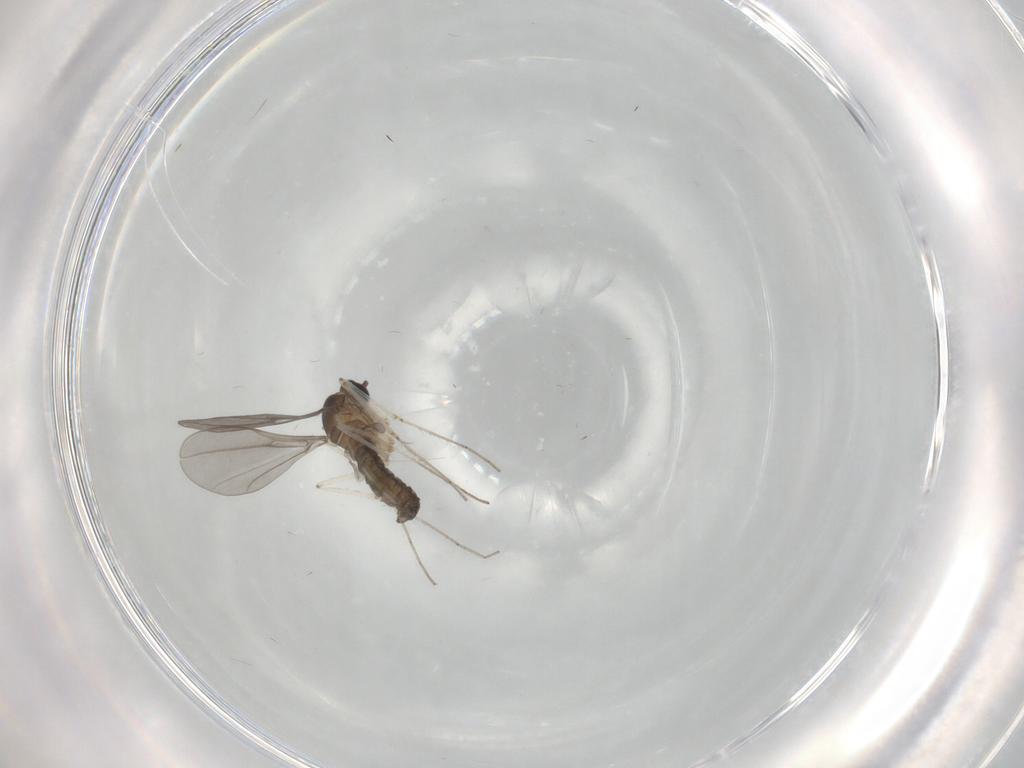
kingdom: Animalia
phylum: Arthropoda
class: Insecta
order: Diptera
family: Cecidomyiidae
